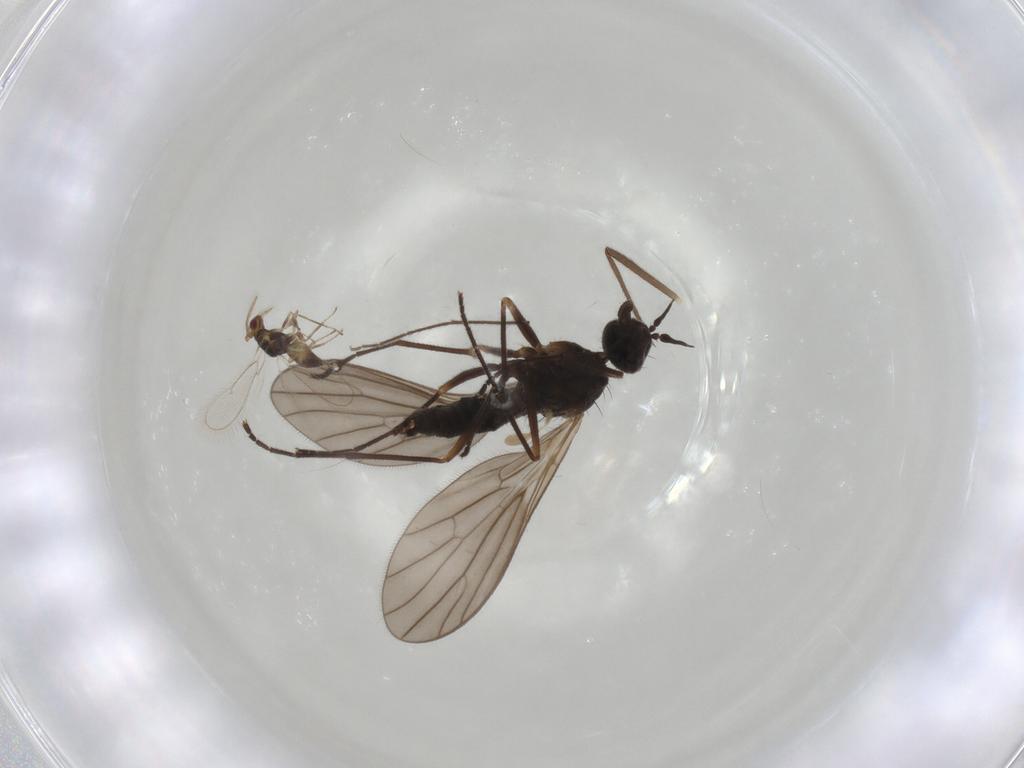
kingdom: Animalia
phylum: Arthropoda
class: Insecta
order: Diptera
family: Chironomidae
